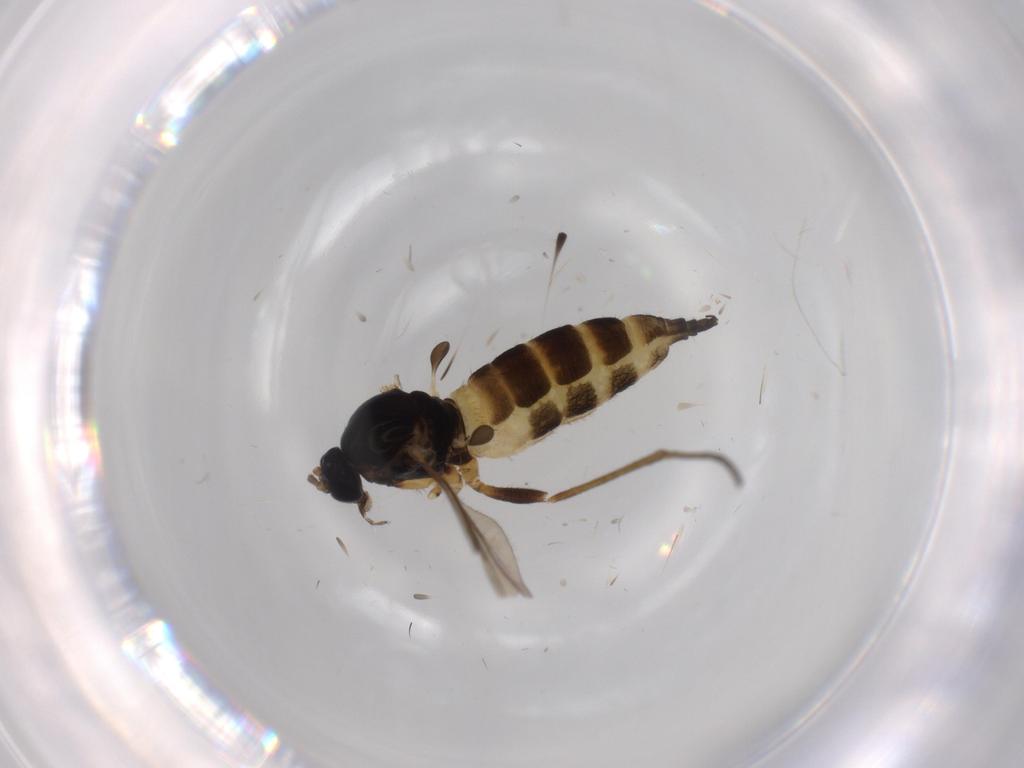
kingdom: Animalia
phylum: Arthropoda
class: Insecta
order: Diptera
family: Sciaridae
